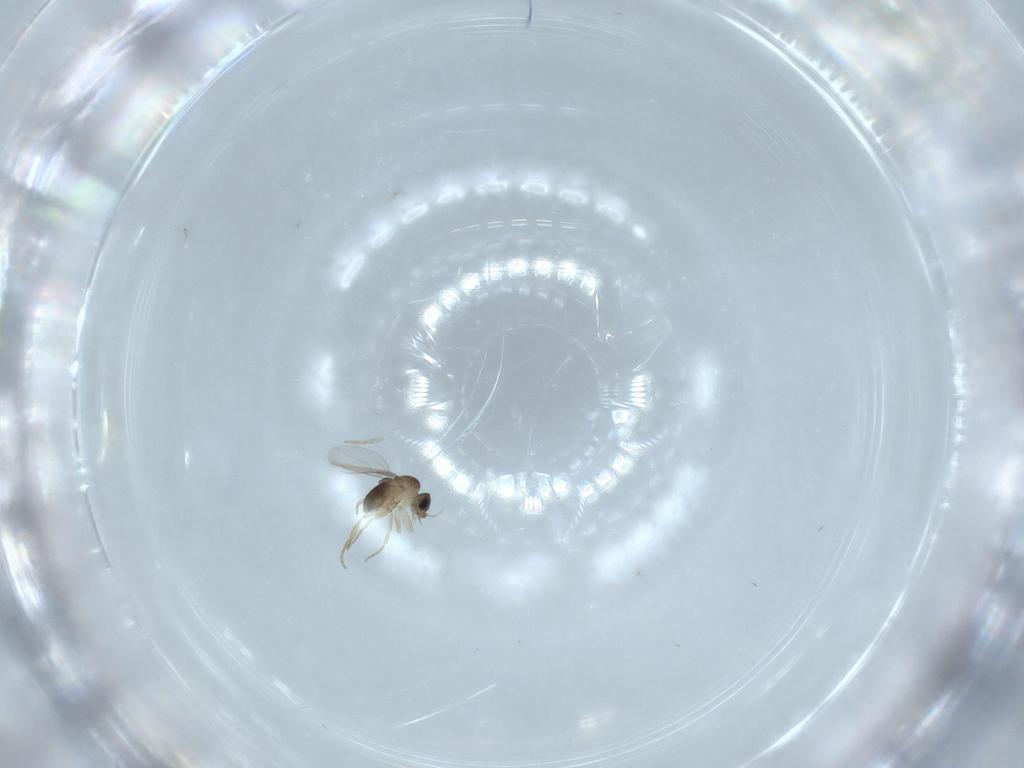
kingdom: Animalia
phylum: Arthropoda
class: Insecta
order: Diptera
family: Phoridae
